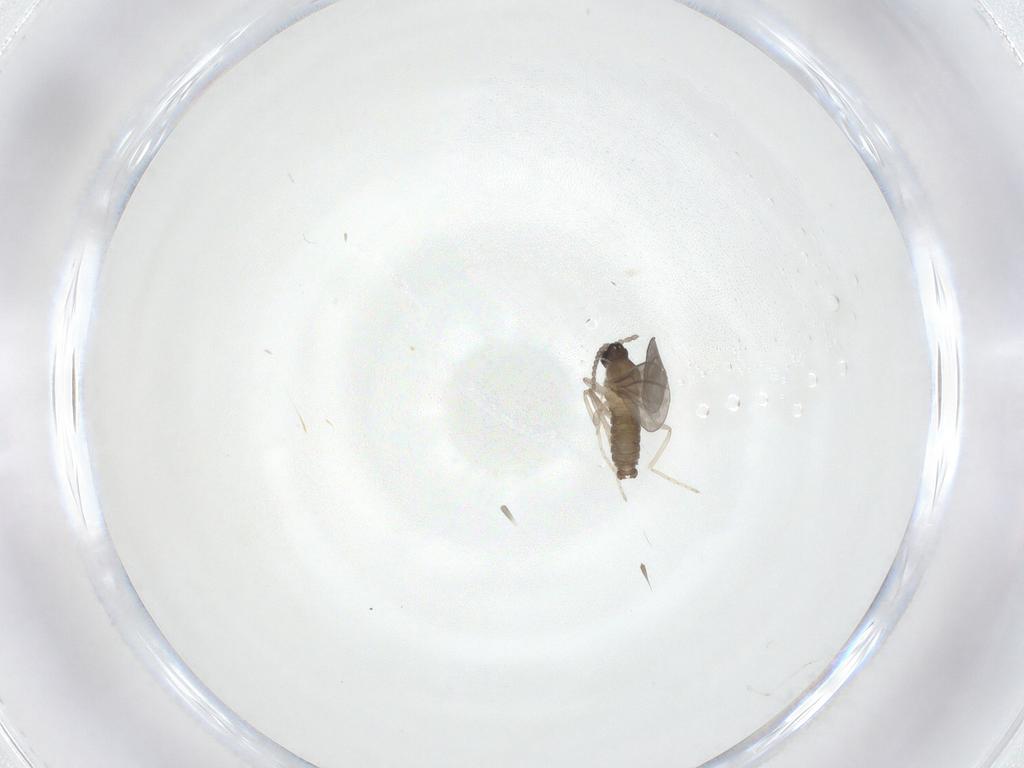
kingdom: Animalia
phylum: Arthropoda
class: Insecta
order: Diptera
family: Cecidomyiidae
